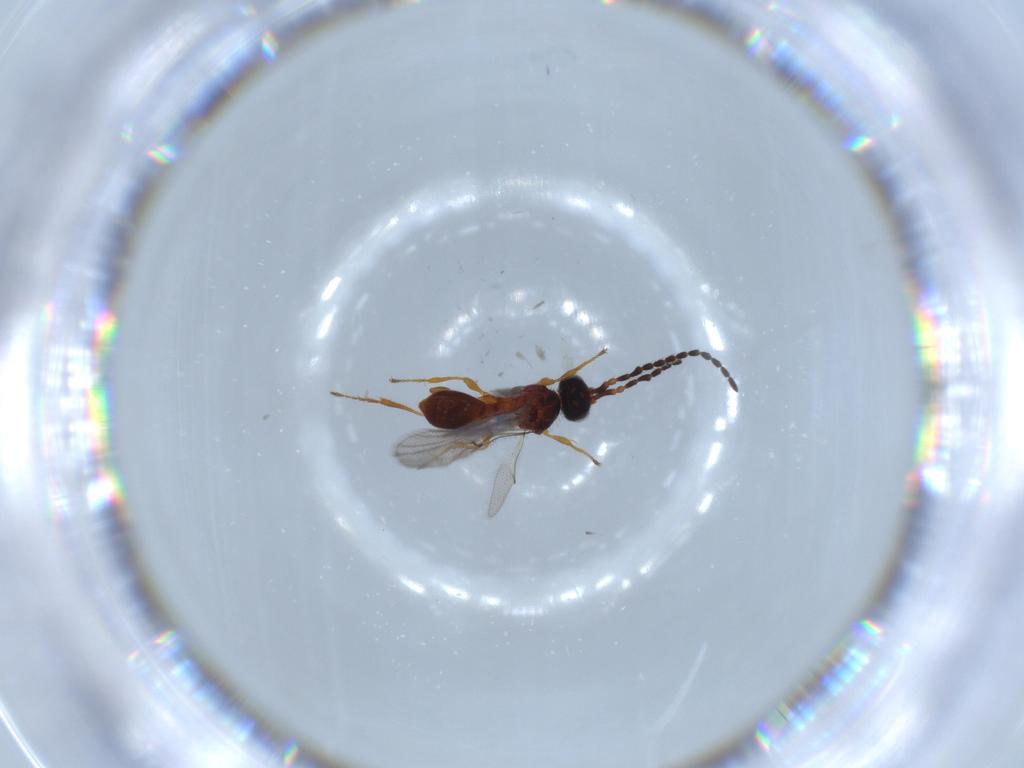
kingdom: Animalia
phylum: Arthropoda
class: Insecta
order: Hymenoptera
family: Diapriidae
